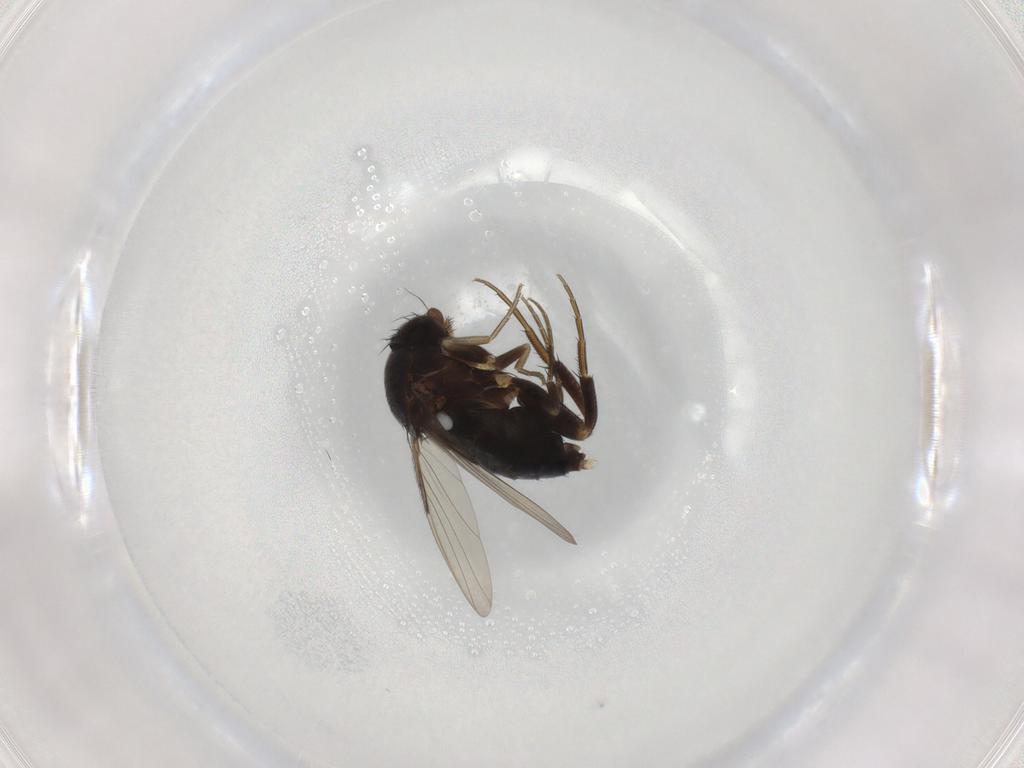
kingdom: Animalia
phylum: Arthropoda
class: Insecta
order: Diptera
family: Phoridae
